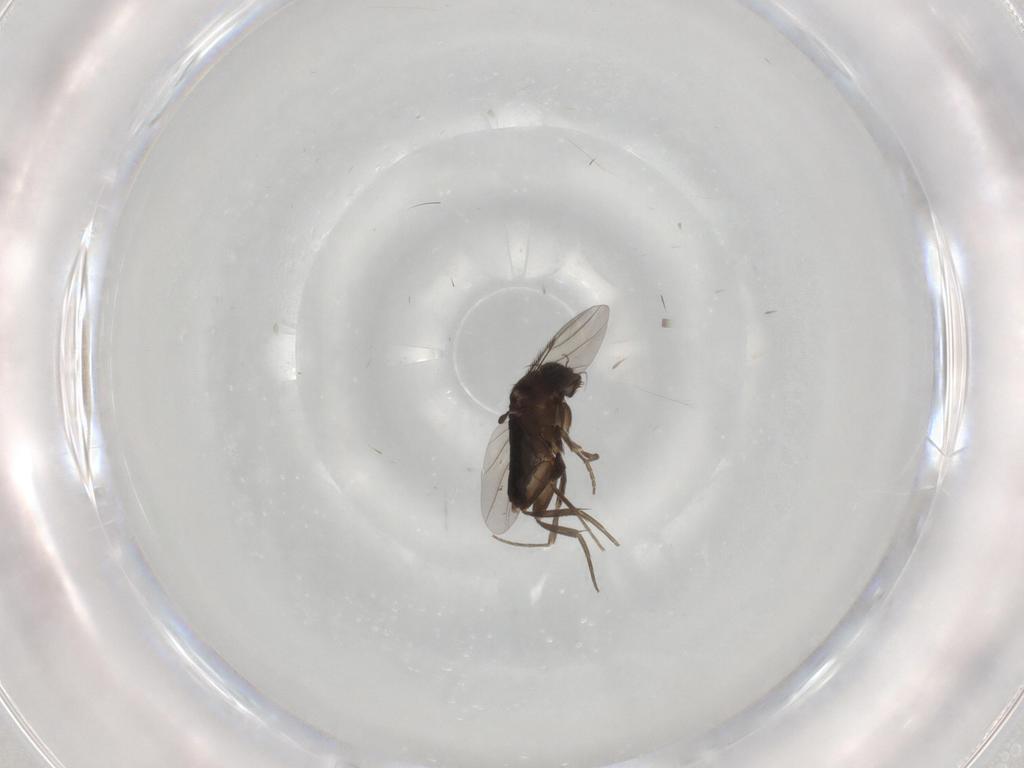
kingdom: Animalia
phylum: Arthropoda
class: Insecta
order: Diptera
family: Phoridae
